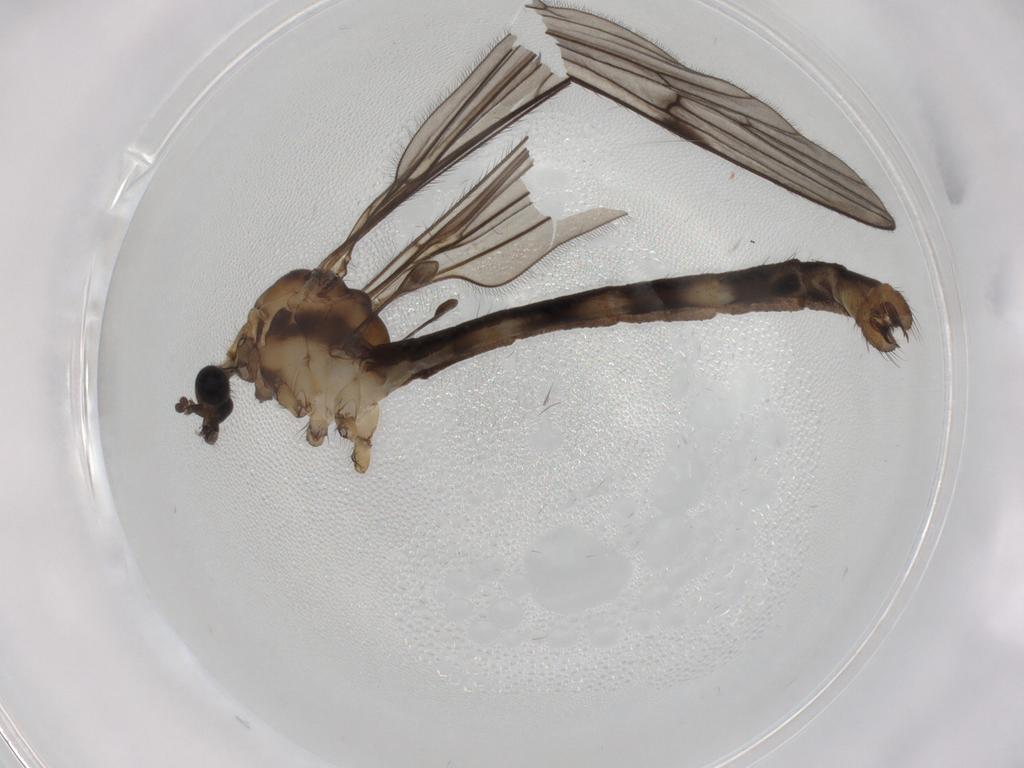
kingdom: Animalia
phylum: Arthropoda
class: Insecta
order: Diptera
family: Limoniidae
